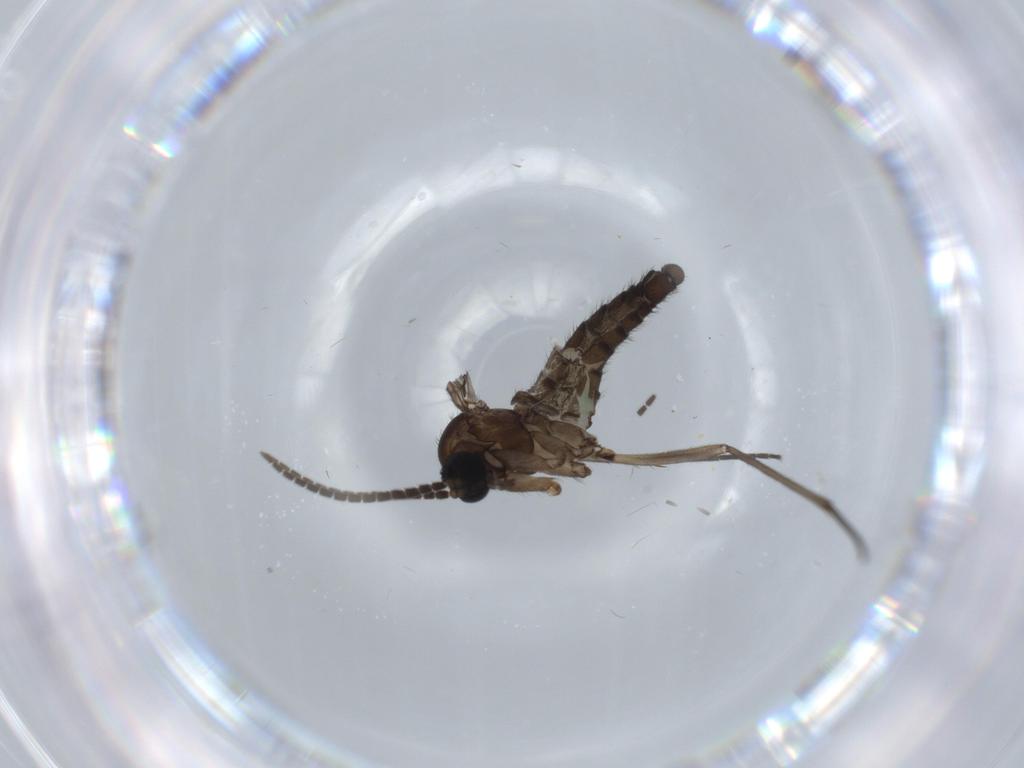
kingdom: Animalia
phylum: Arthropoda
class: Insecta
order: Diptera
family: Sciaridae
